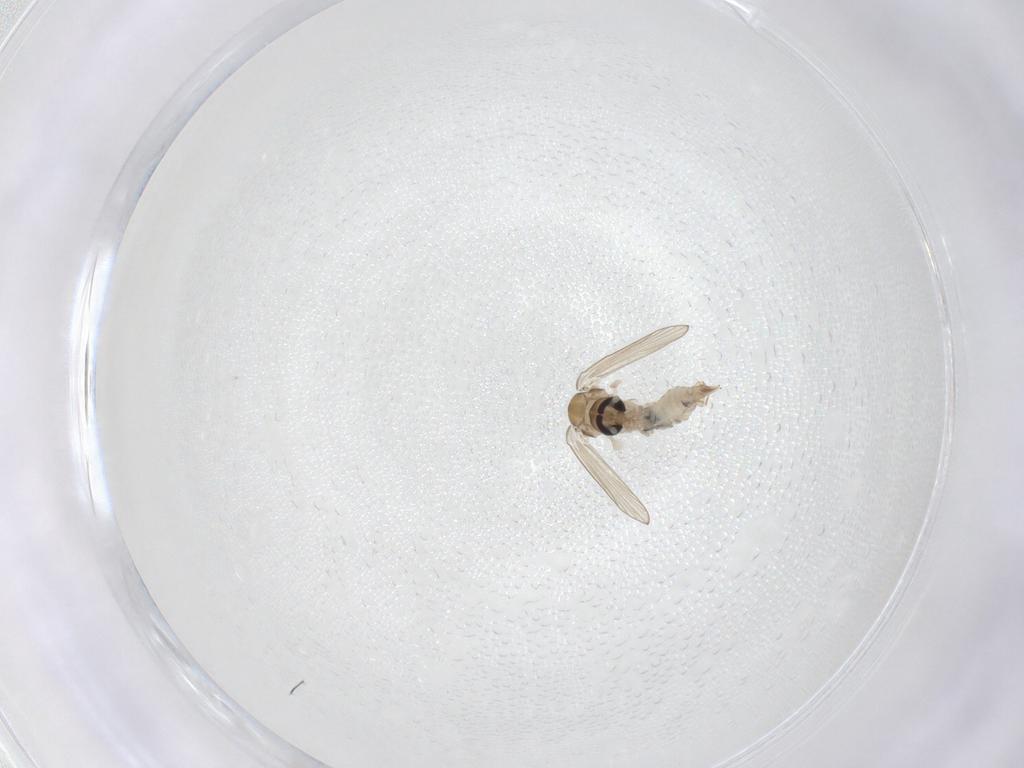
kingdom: Animalia
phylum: Arthropoda
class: Insecta
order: Diptera
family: Psychodidae
